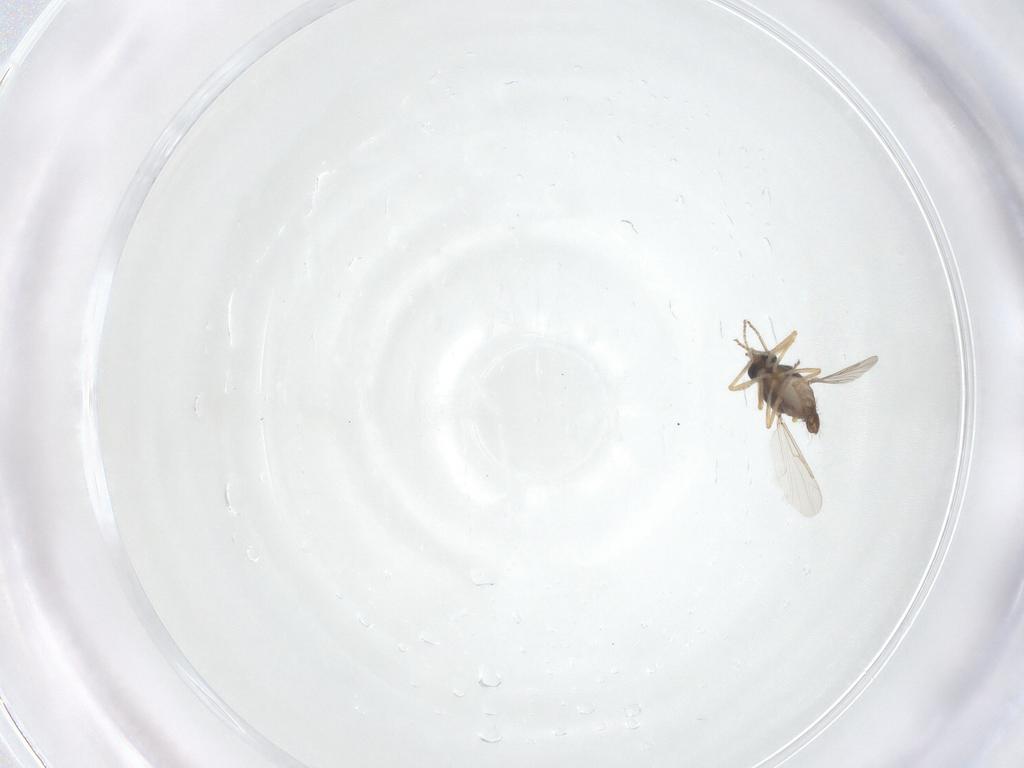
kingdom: Animalia
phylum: Arthropoda
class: Insecta
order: Diptera
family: Ceratopogonidae
